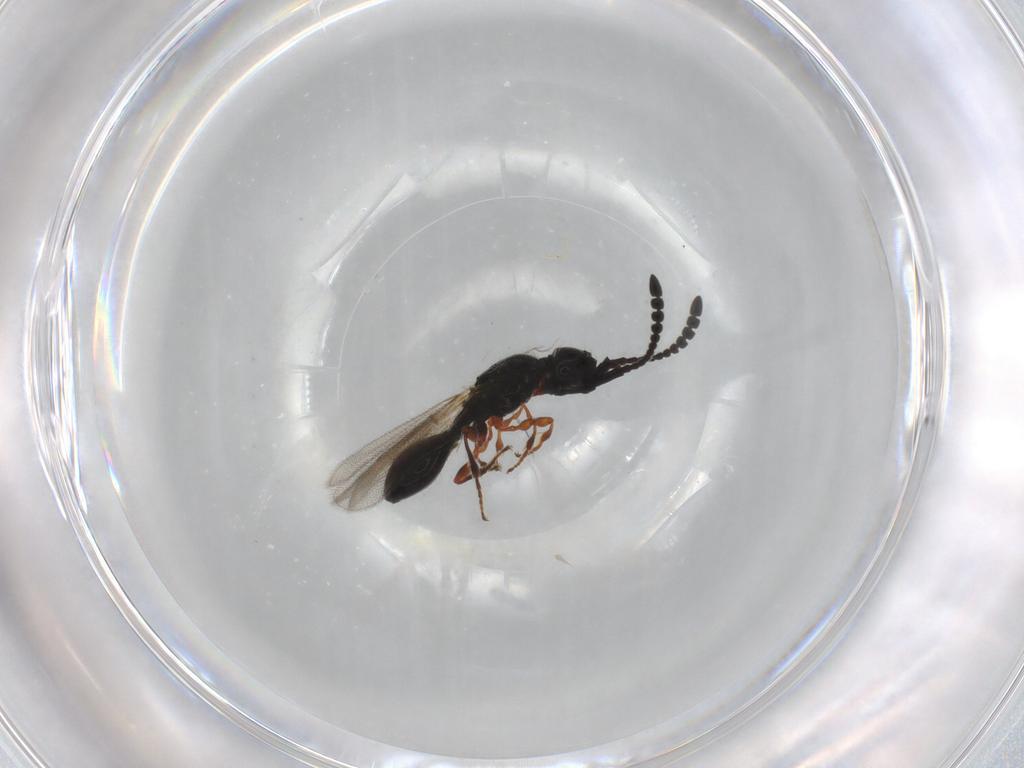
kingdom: Animalia
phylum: Arthropoda
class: Insecta
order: Hymenoptera
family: Diapriidae
